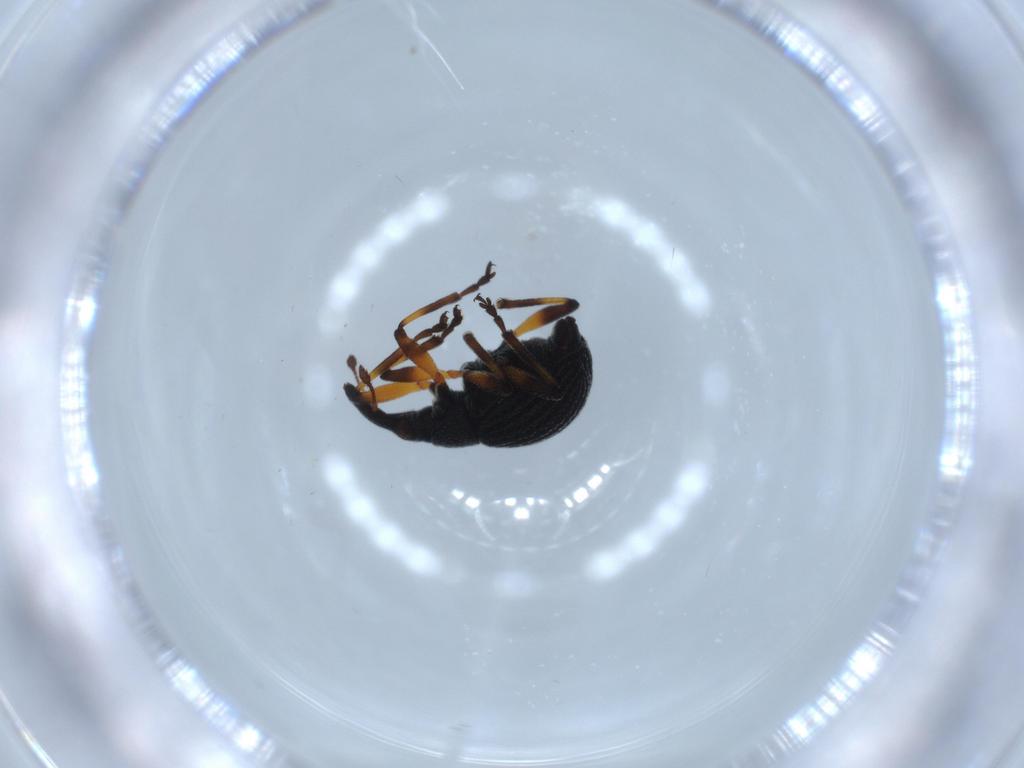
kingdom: Animalia
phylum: Arthropoda
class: Insecta
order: Coleoptera
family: Brentidae
